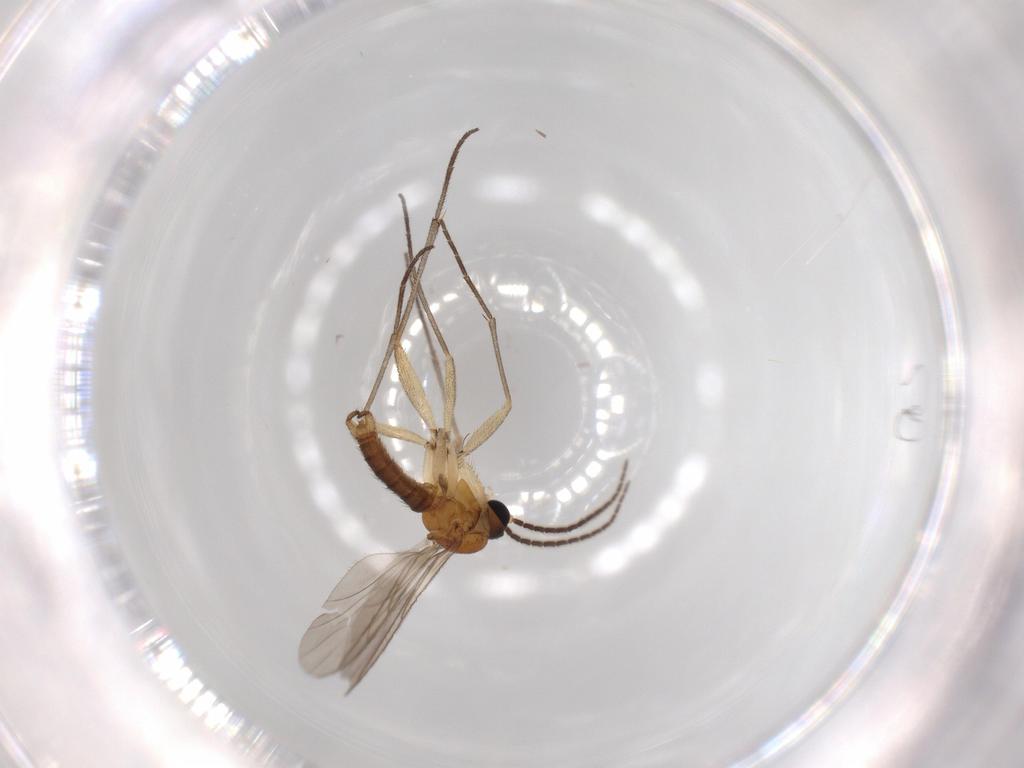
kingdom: Animalia
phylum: Arthropoda
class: Insecta
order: Diptera
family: Sciaridae
